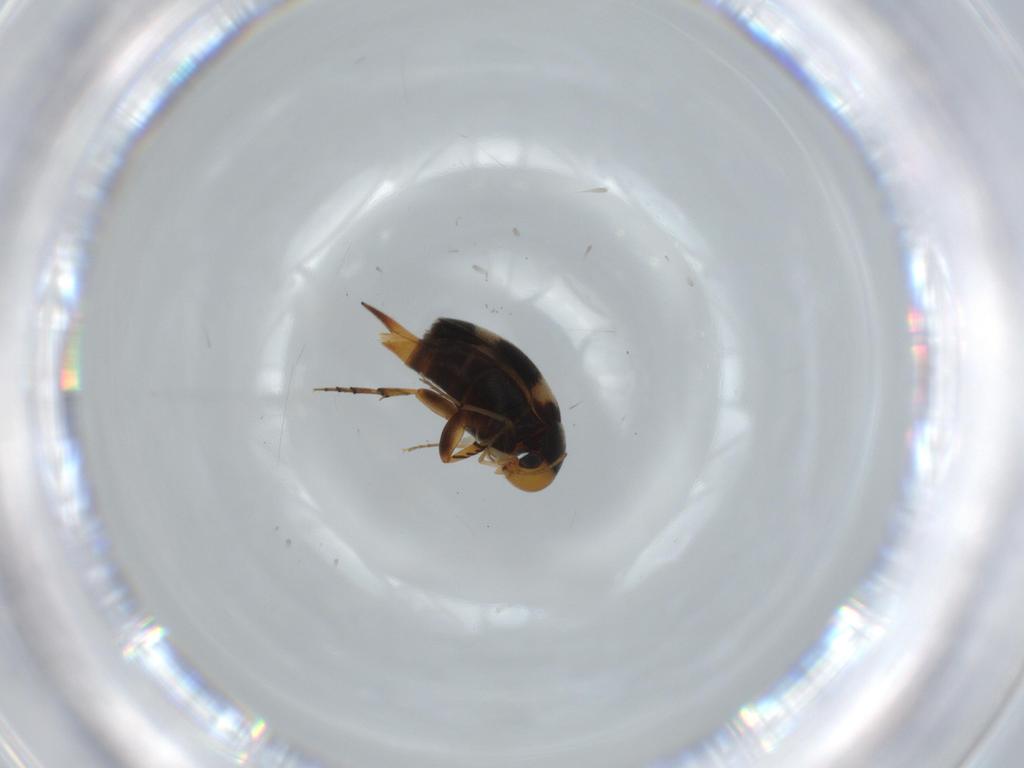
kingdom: Animalia
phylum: Arthropoda
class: Insecta
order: Coleoptera
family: Mordellidae
